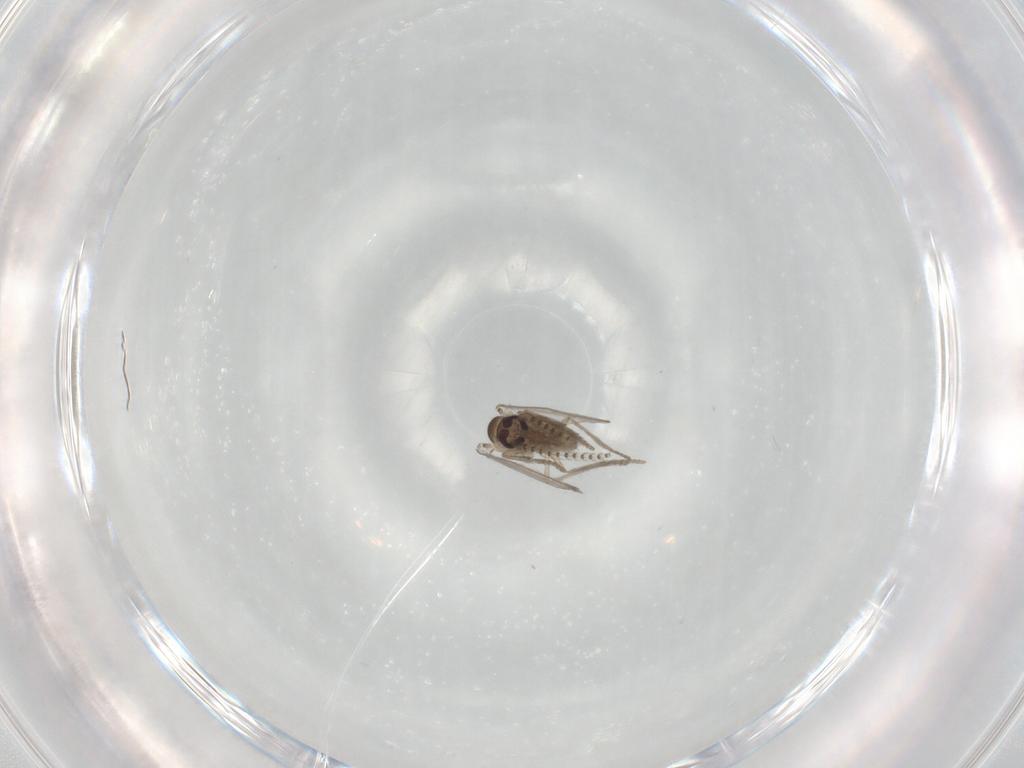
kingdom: Animalia
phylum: Arthropoda
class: Insecta
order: Diptera
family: Psychodidae
